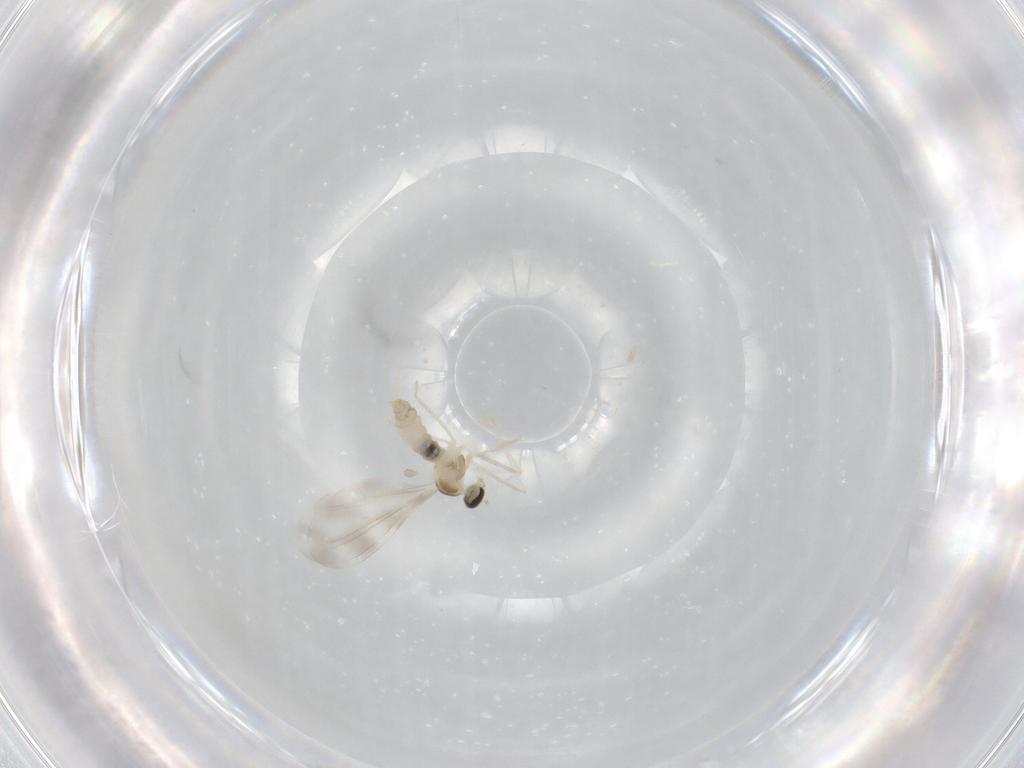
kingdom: Animalia
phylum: Arthropoda
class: Insecta
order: Diptera
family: Cecidomyiidae
